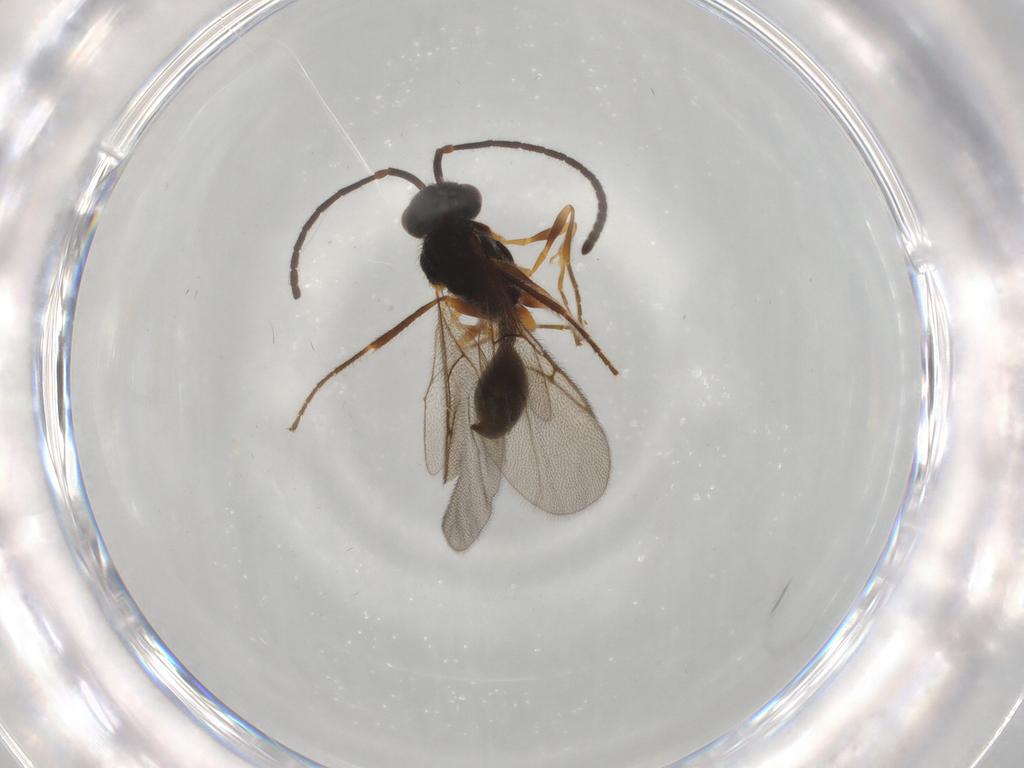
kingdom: Animalia
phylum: Arthropoda
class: Insecta
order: Hymenoptera
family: Diapriidae
